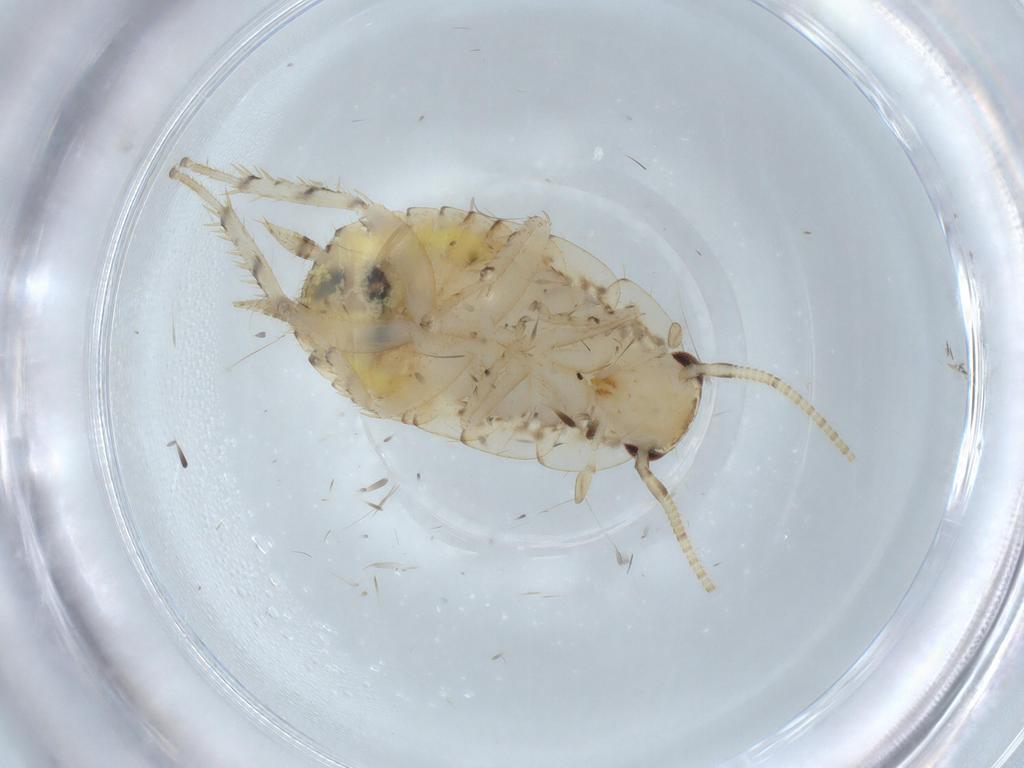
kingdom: Animalia
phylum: Arthropoda
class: Insecta
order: Blattodea
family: Ectobiidae
